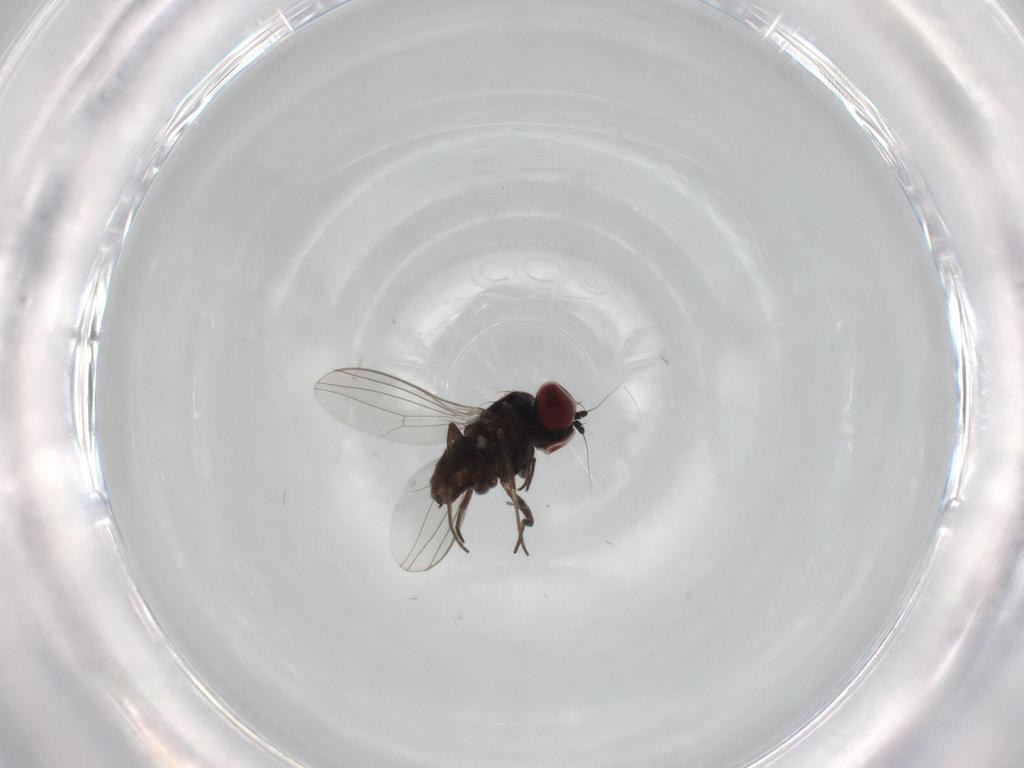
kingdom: Animalia
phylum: Arthropoda
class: Insecta
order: Diptera
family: Dolichopodidae
